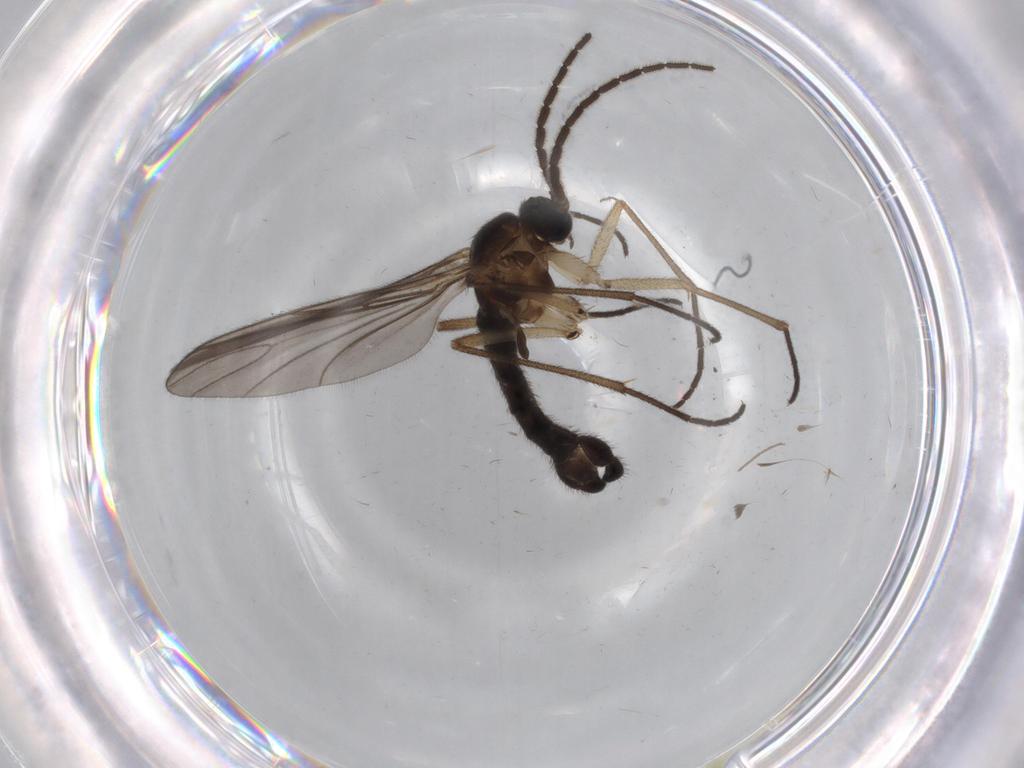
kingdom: Animalia
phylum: Arthropoda
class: Insecta
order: Diptera
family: Sciaridae
